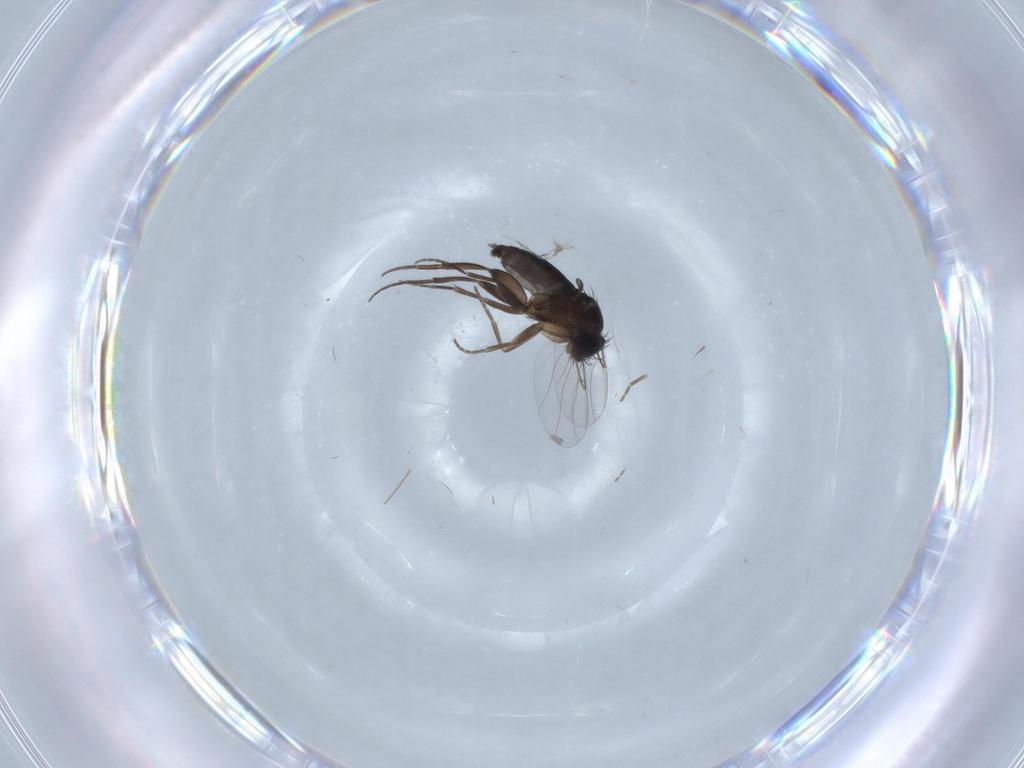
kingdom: Animalia
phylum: Arthropoda
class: Insecta
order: Diptera
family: Phoridae
